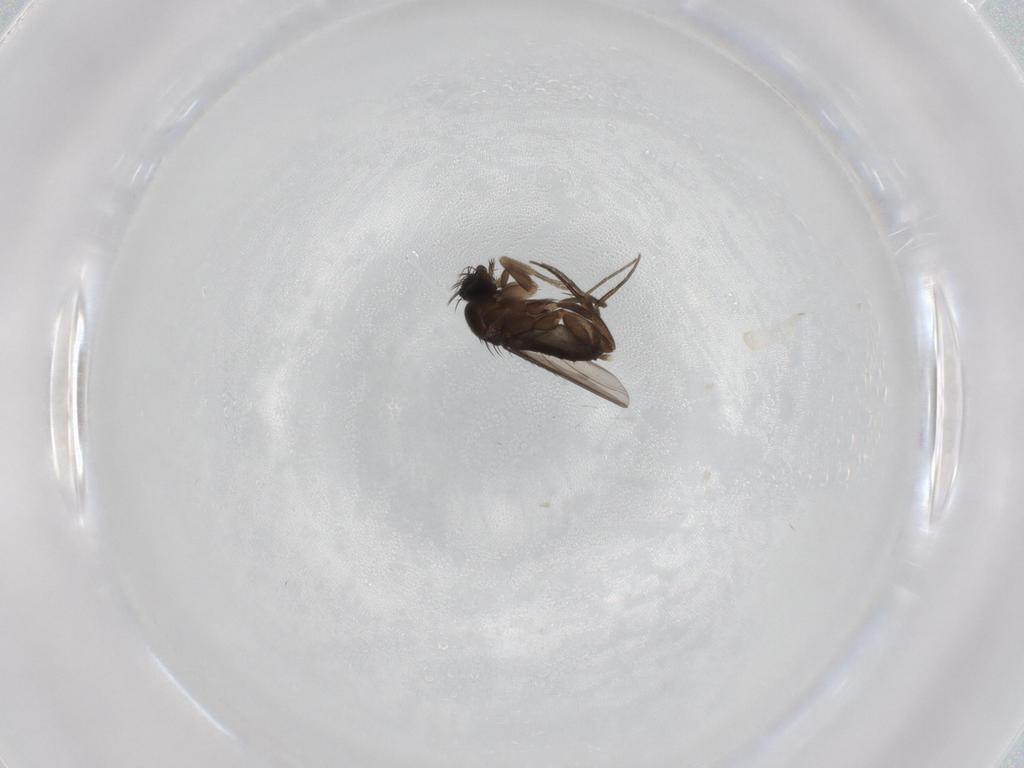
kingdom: Animalia
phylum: Arthropoda
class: Insecta
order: Diptera
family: Phoridae
